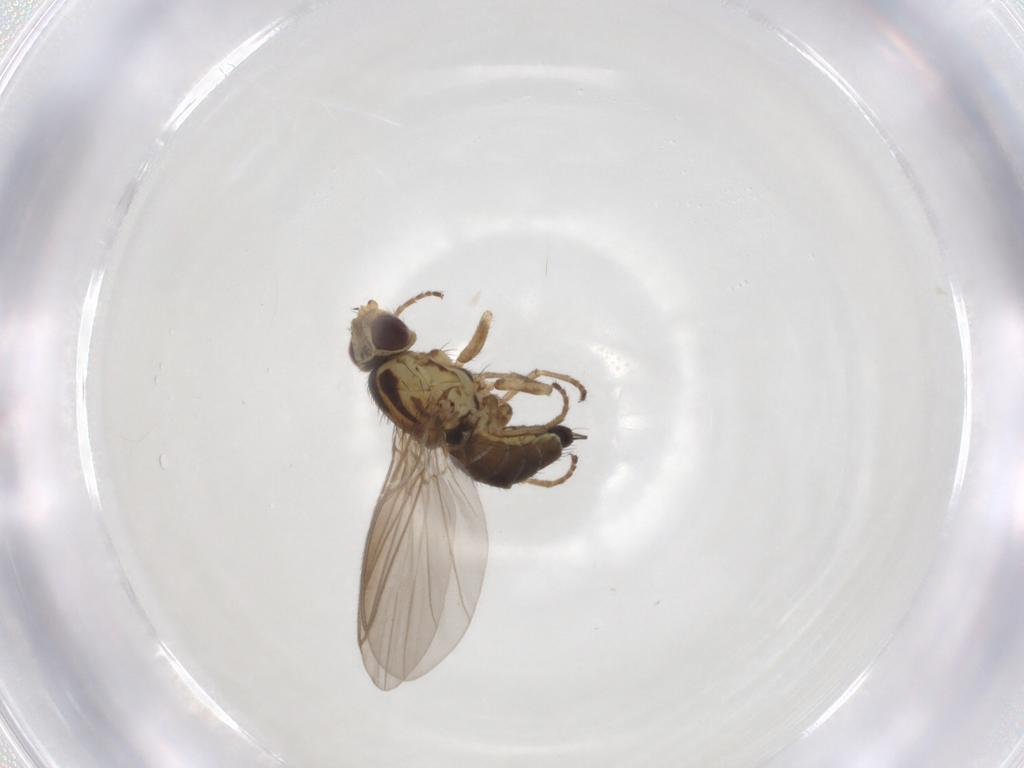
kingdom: Animalia
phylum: Arthropoda
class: Insecta
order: Diptera
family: Agromyzidae
